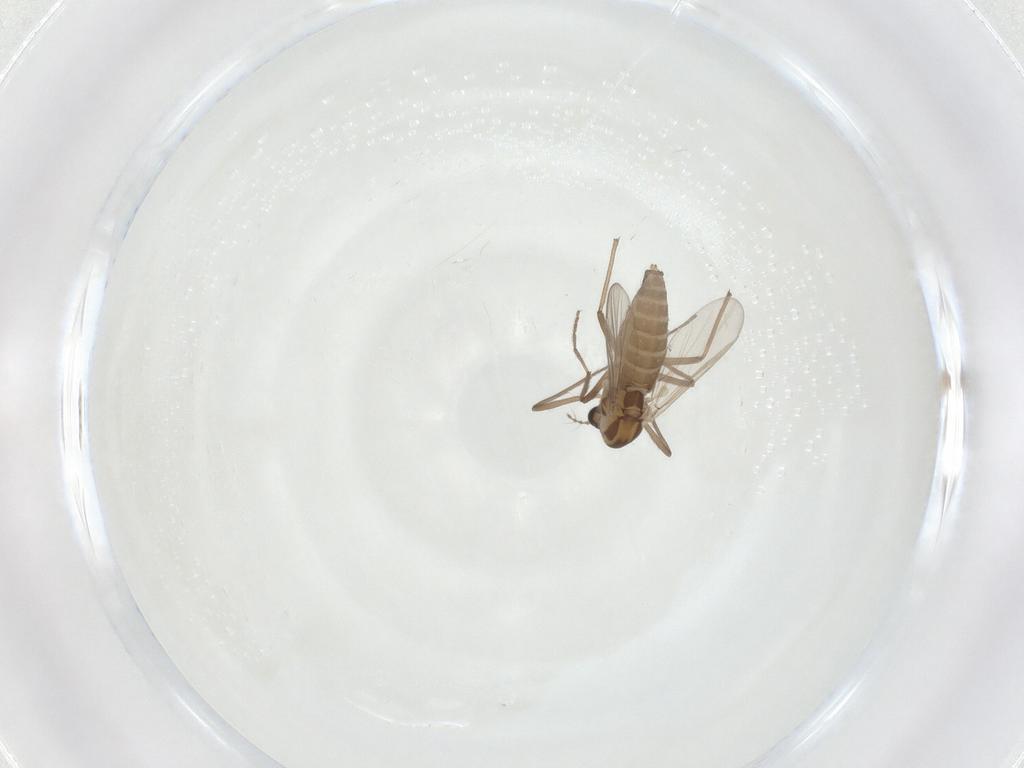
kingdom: Animalia
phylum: Arthropoda
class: Insecta
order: Diptera
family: Chironomidae
